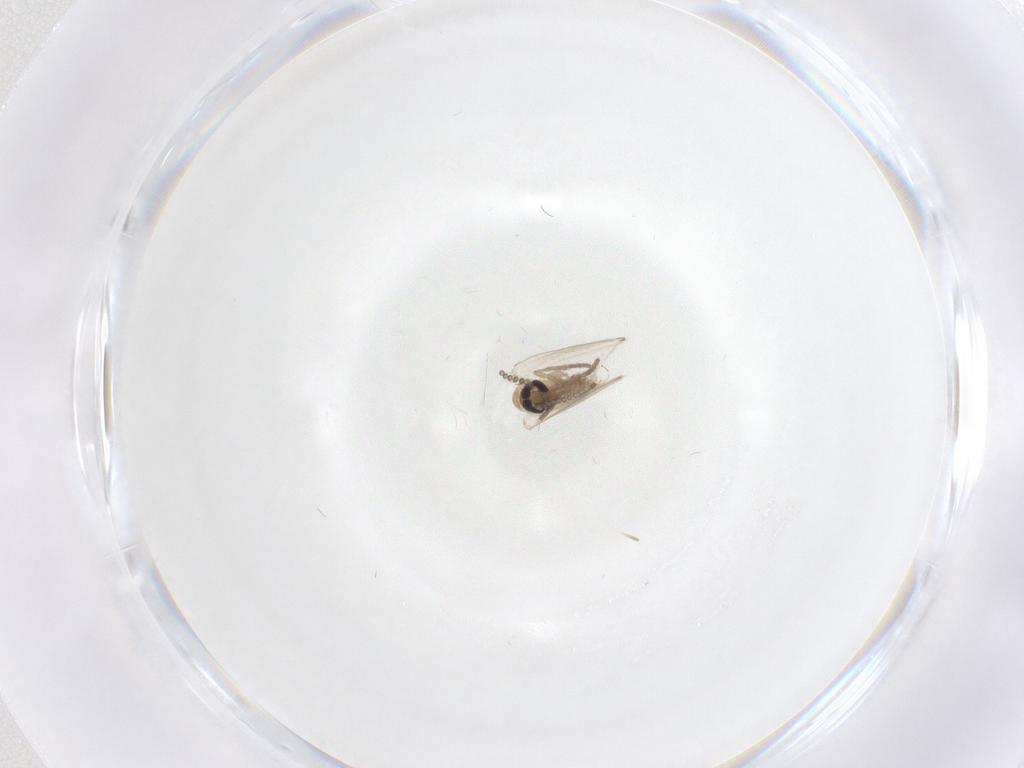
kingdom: Animalia
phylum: Arthropoda
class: Insecta
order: Diptera
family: Psychodidae
